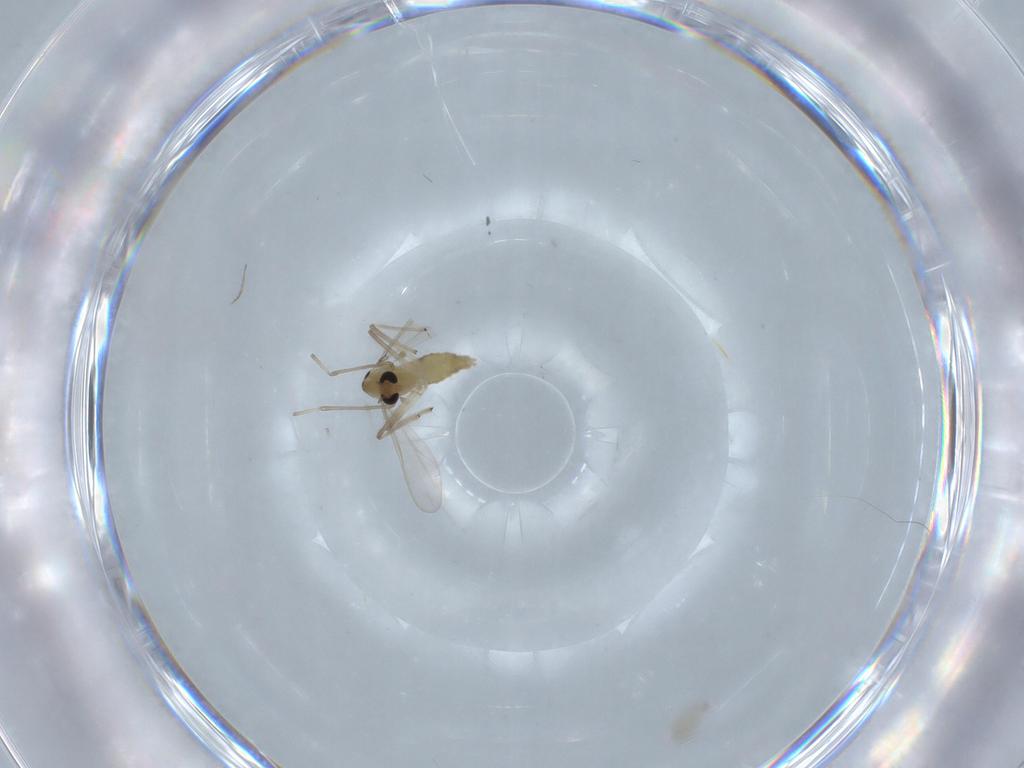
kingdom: Animalia
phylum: Arthropoda
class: Insecta
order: Diptera
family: Chironomidae
